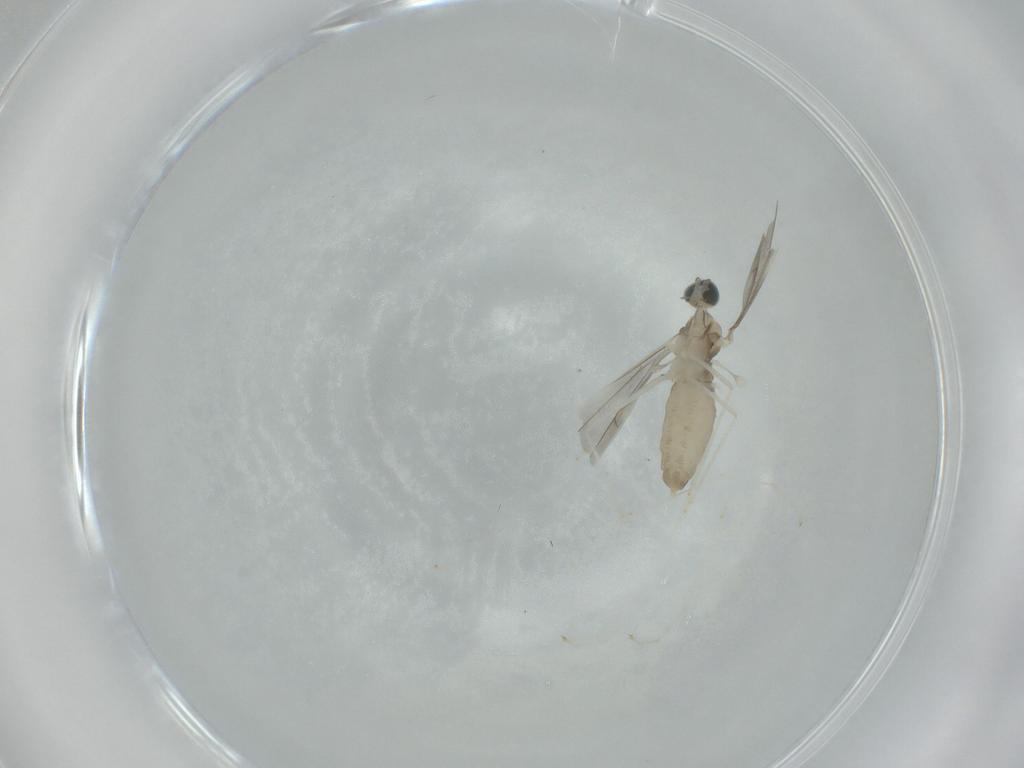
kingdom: Animalia
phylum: Arthropoda
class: Insecta
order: Diptera
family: Cecidomyiidae
